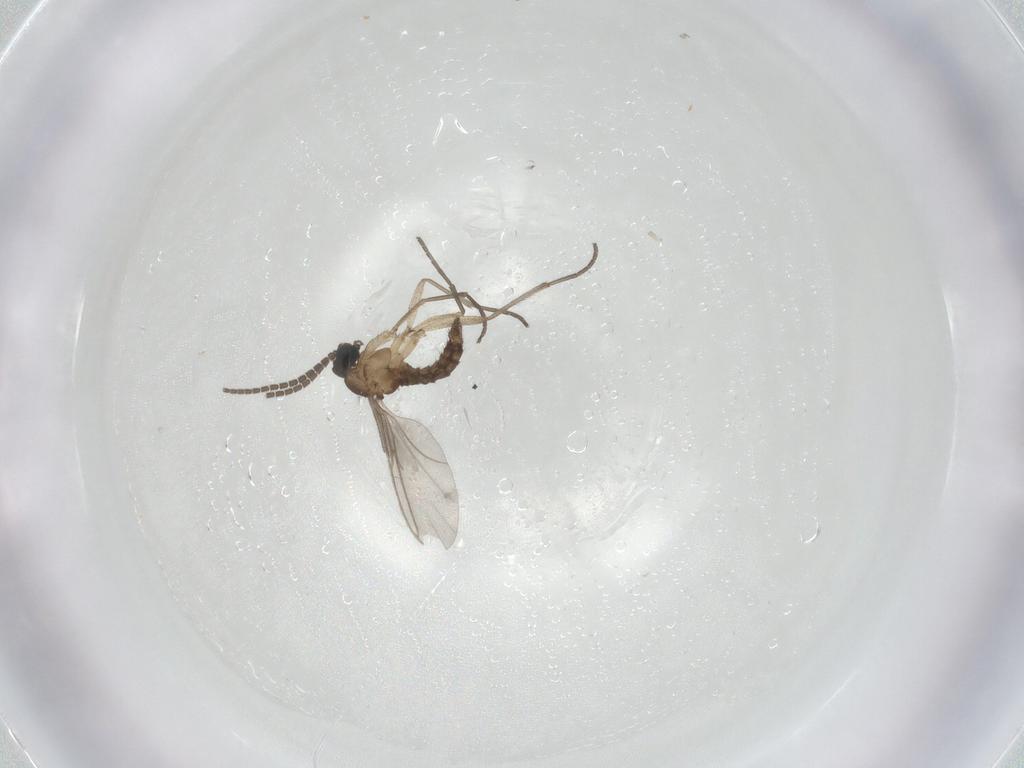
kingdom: Animalia
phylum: Arthropoda
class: Insecta
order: Diptera
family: Sciaridae
